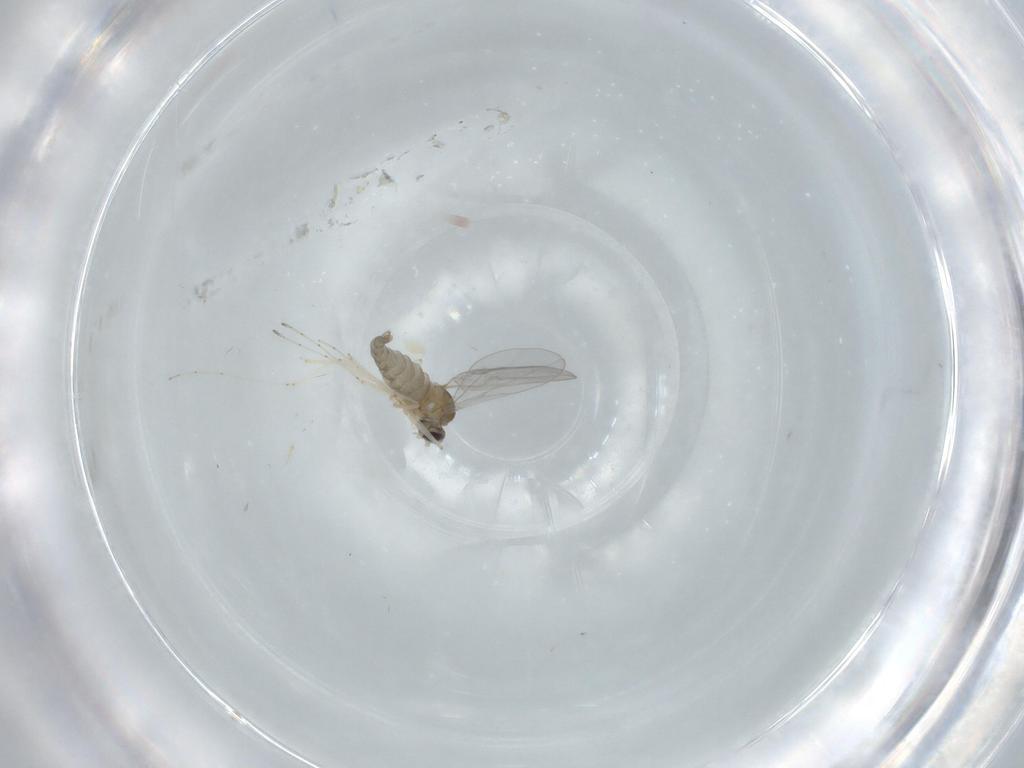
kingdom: Animalia
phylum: Arthropoda
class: Insecta
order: Diptera
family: Cecidomyiidae
